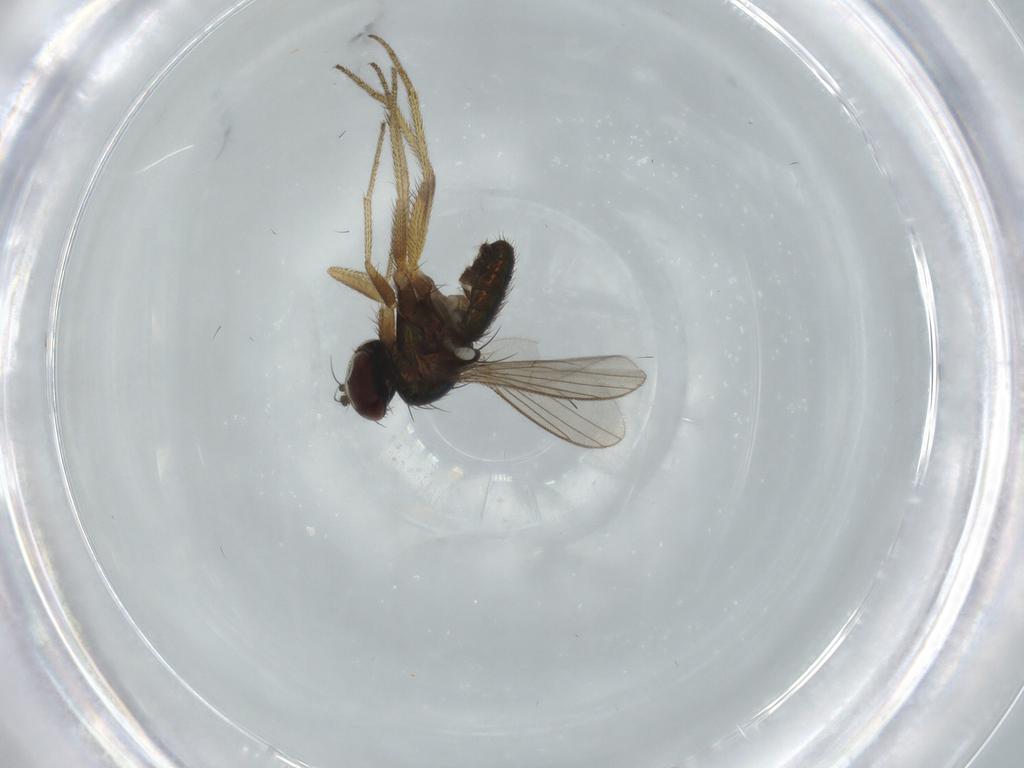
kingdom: Animalia
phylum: Arthropoda
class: Insecta
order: Diptera
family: Dolichopodidae
